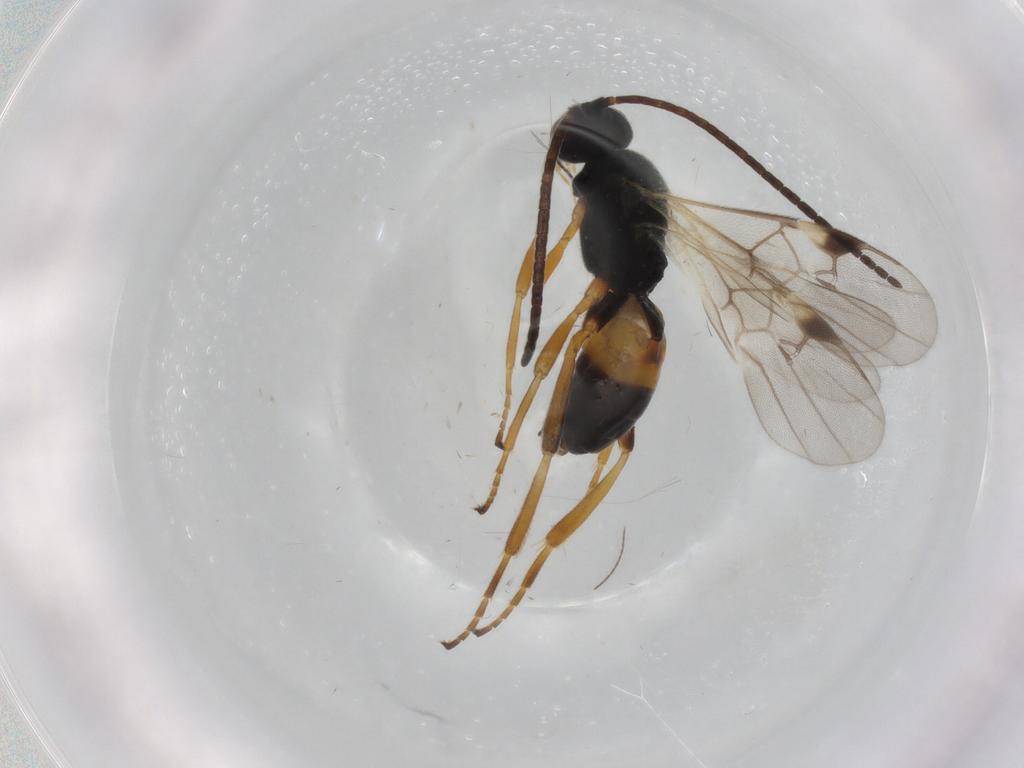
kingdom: Animalia
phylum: Arthropoda
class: Insecta
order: Hymenoptera
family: Braconidae
